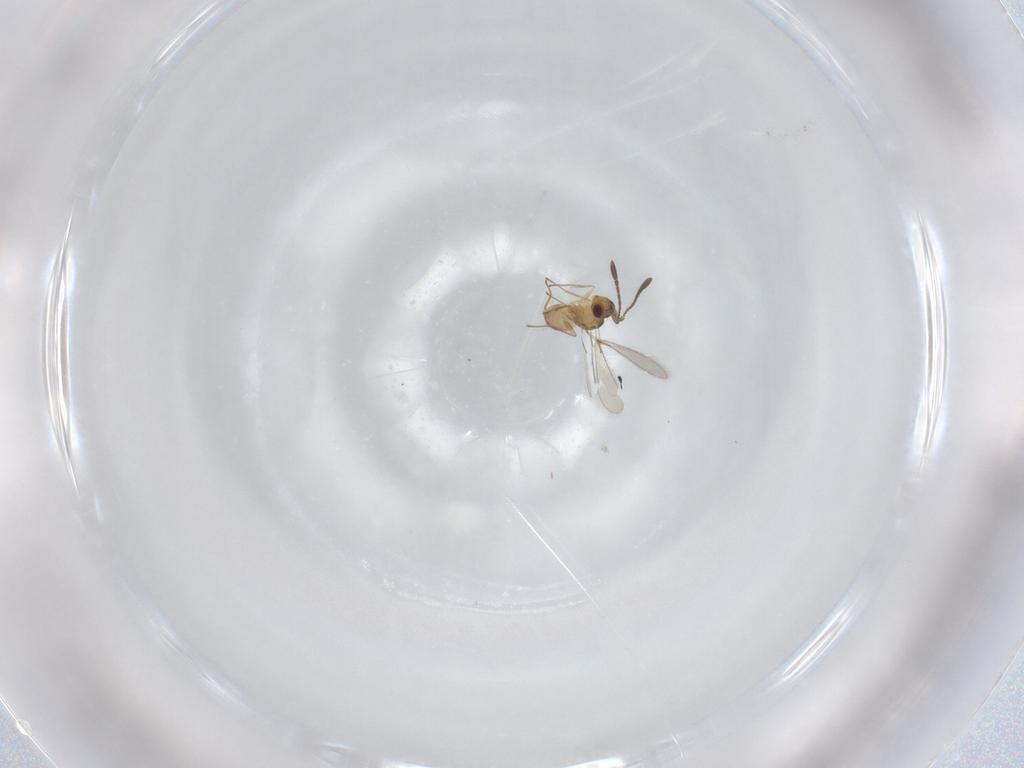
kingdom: Animalia
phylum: Arthropoda
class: Insecta
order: Hymenoptera
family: Mymaridae
